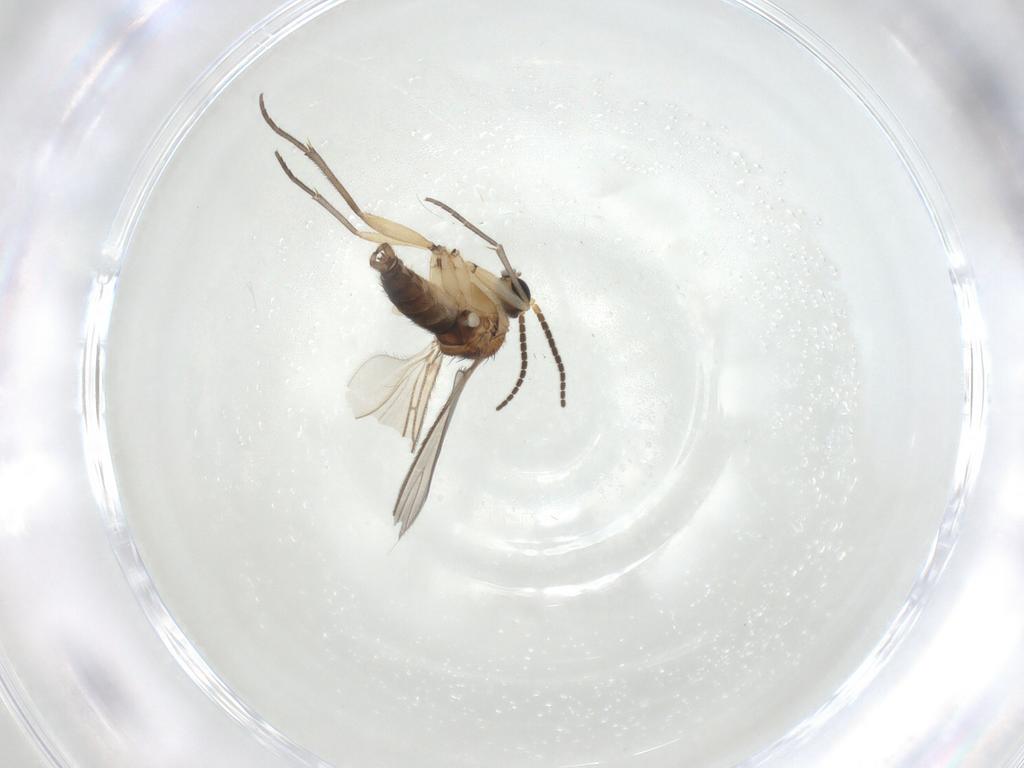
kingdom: Animalia
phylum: Arthropoda
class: Insecta
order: Diptera
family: Sciaridae
